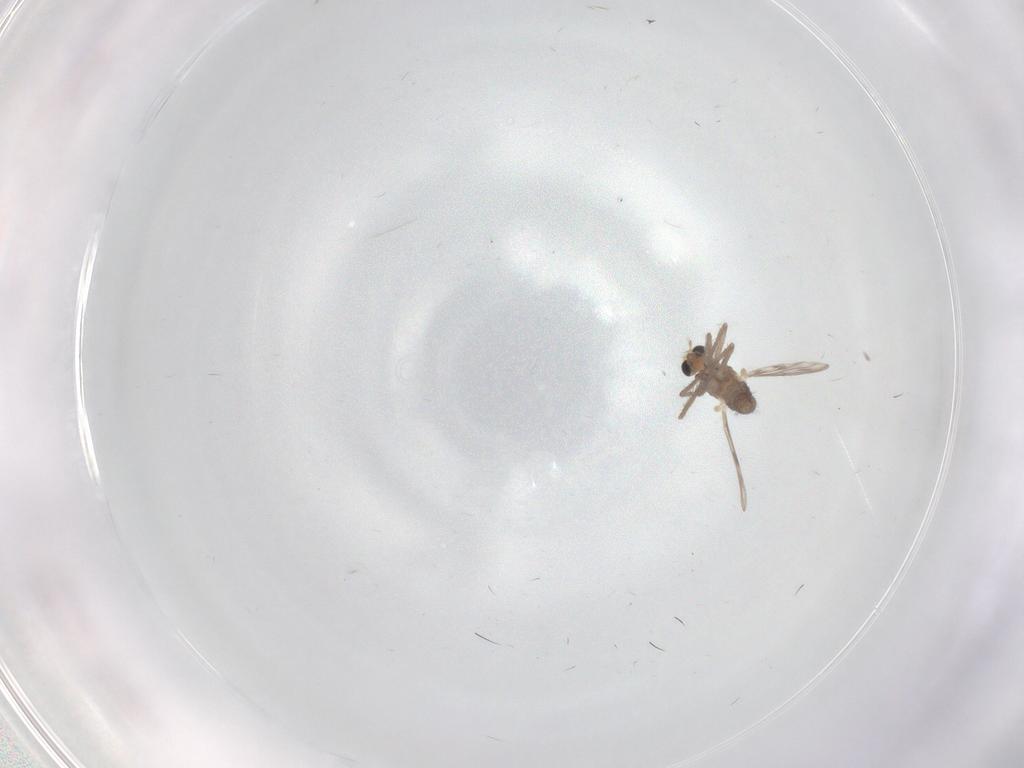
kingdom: Animalia
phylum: Arthropoda
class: Insecta
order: Diptera
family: Chironomidae
